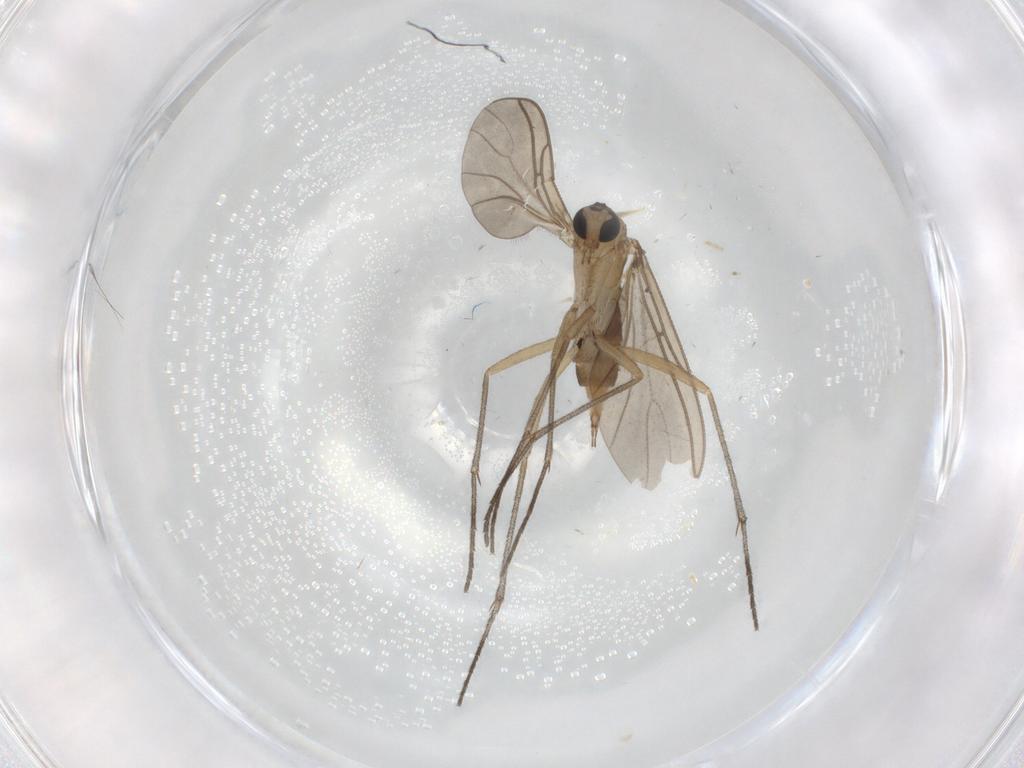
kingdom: Animalia
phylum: Arthropoda
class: Insecta
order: Diptera
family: Sciaridae
